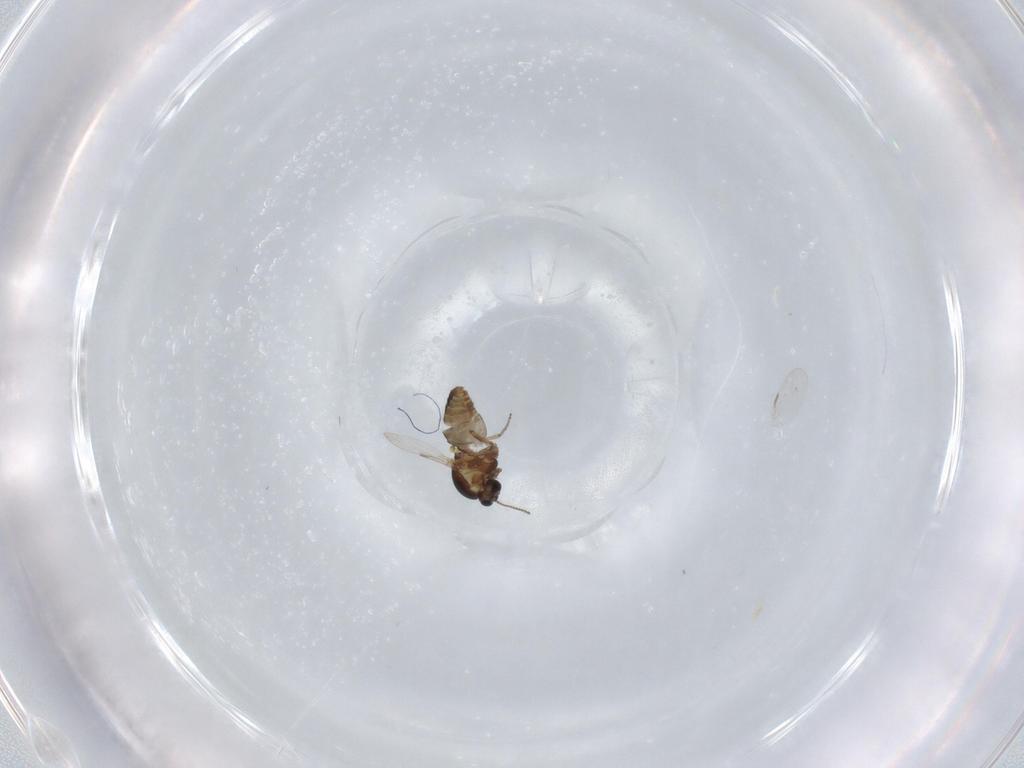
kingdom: Animalia
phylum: Arthropoda
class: Insecta
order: Diptera
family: Ceratopogonidae
